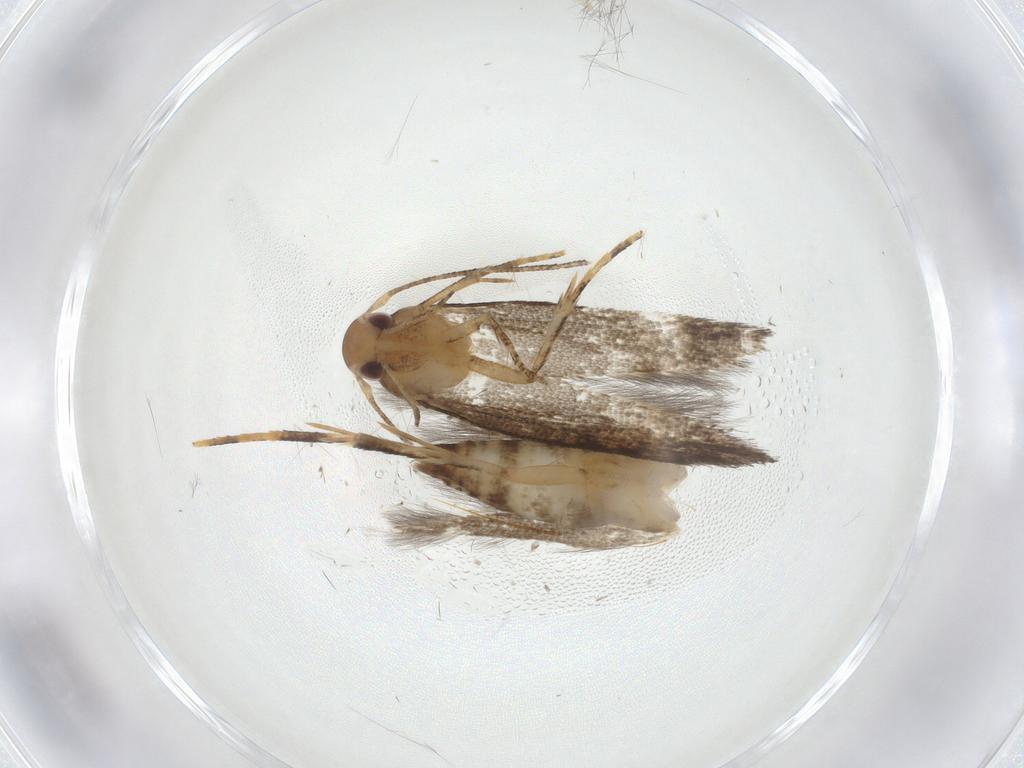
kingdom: Animalia
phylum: Arthropoda
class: Insecta
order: Lepidoptera
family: Momphidae
